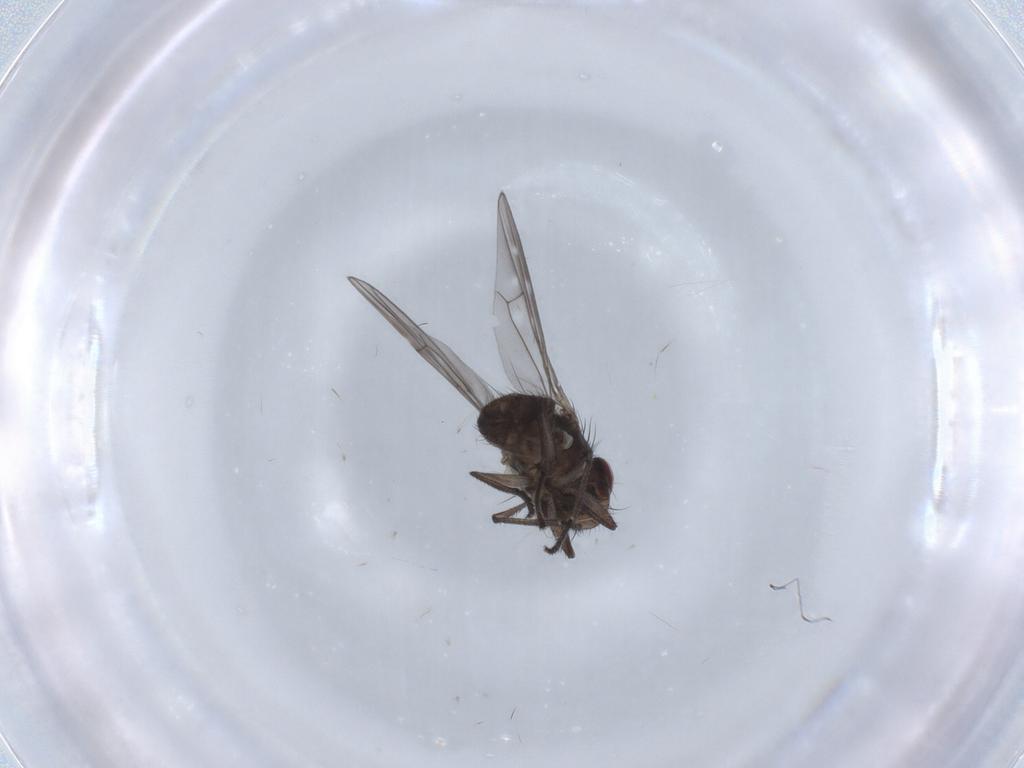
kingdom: Animalia
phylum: Arthropoda
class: Insecta
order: Diptera
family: Ephydridae
